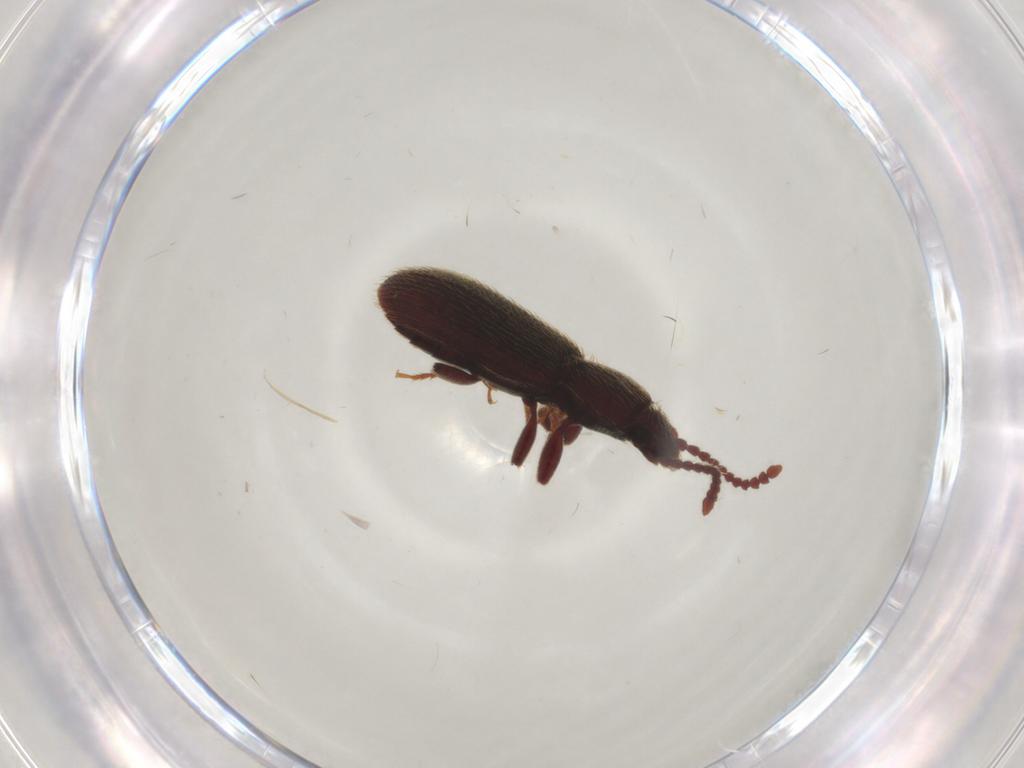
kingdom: Animalia
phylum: Arthropoda
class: Insecta
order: Coleoptera
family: Silvanidae
